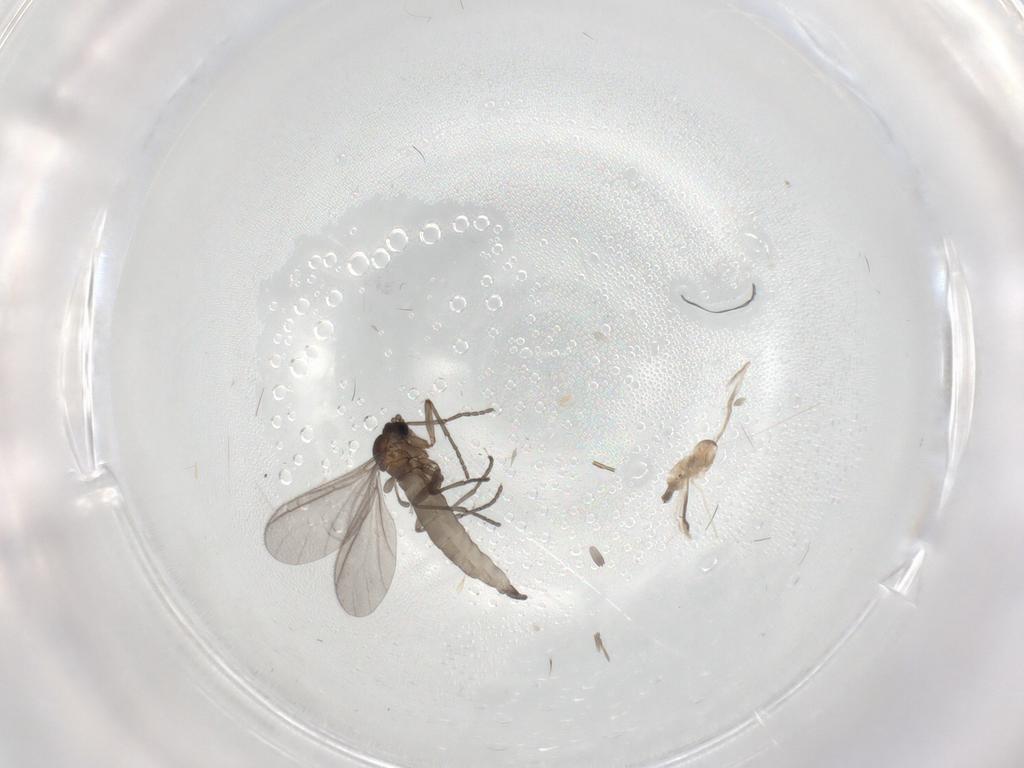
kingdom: Animalia
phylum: Arthropoda
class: Insecta
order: Diptera
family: Sciaridae
